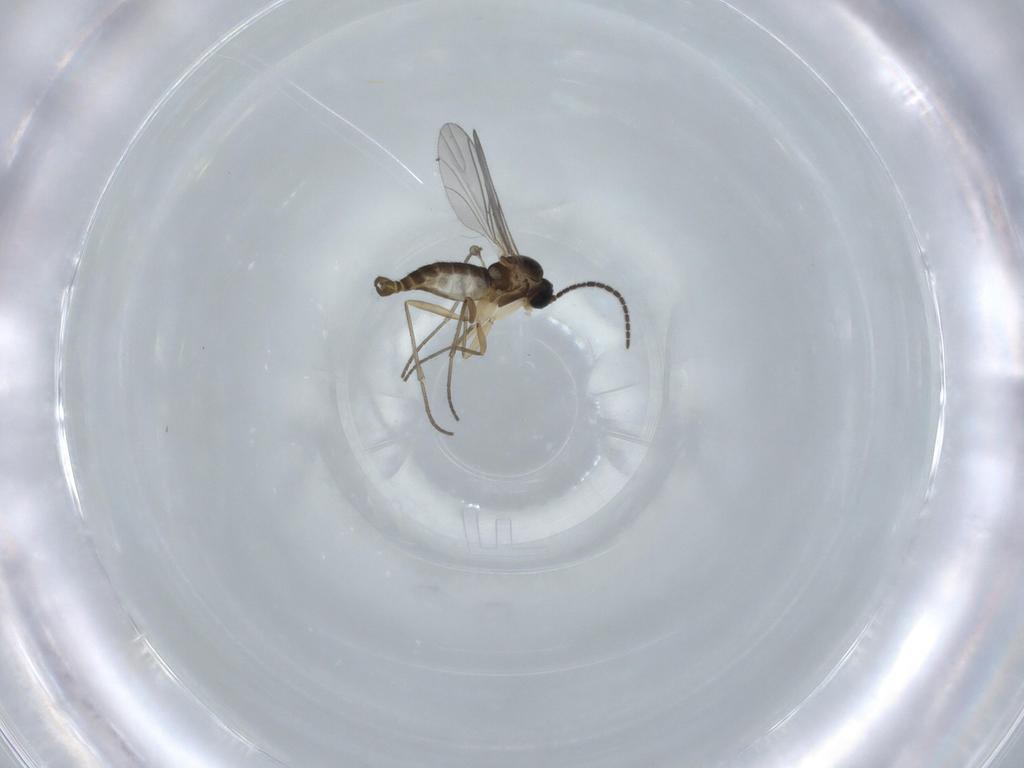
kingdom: Animalia
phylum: Arthropoda
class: Insecta
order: Diptera
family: Sciaridae
